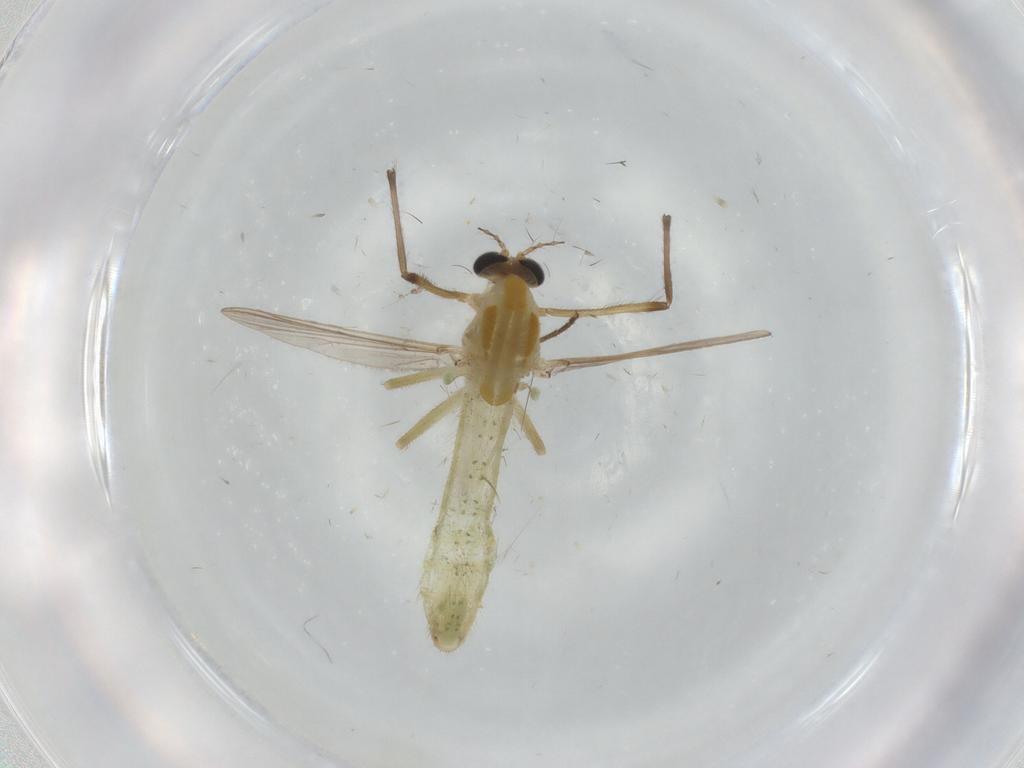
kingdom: Animalia
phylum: Arthropoda
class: Insecta
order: Diptera
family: Chironomidae
